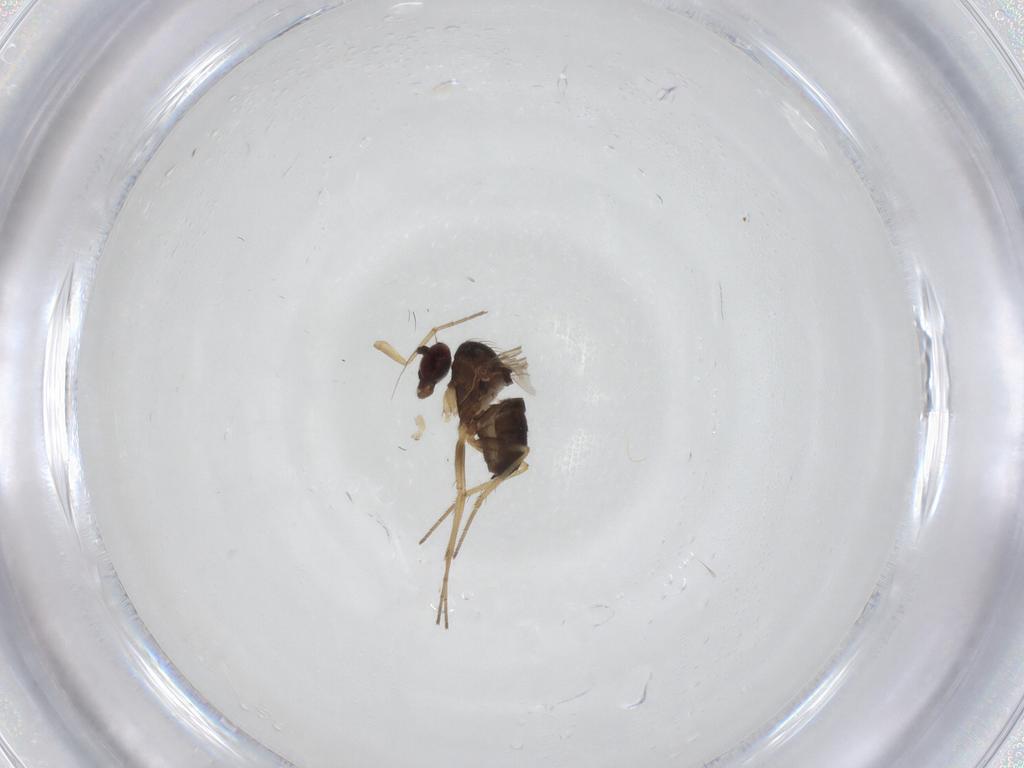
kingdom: Animalia
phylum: Arthropoda
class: Insecta
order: Diptera
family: Dolichopodidae
